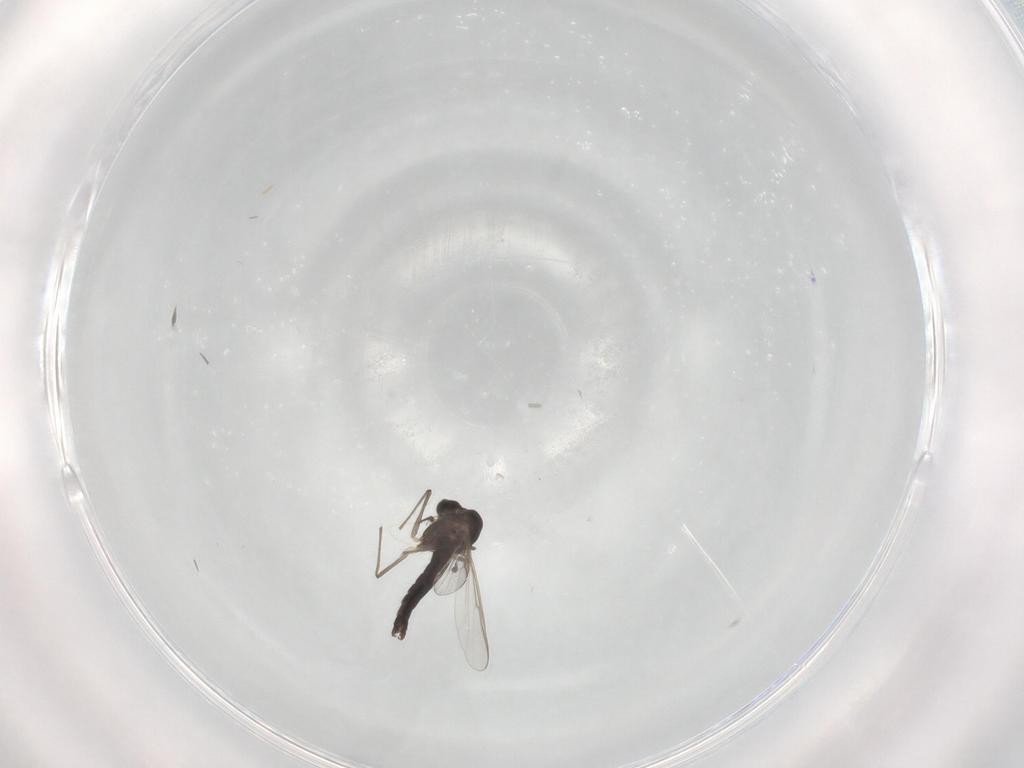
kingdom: Animalia
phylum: Arthropoda
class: Insecta
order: Diptera
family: Chironomidae
